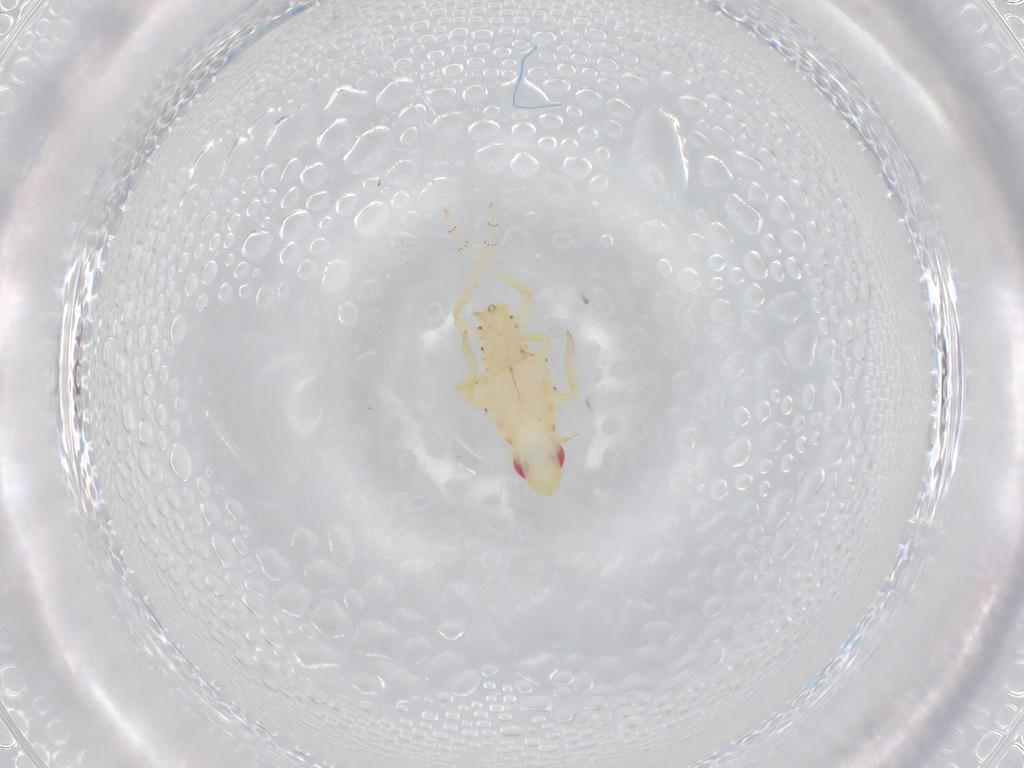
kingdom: Animalia
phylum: Arthropoda
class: Insecta
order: Hemiptera
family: Tropiduchidae
